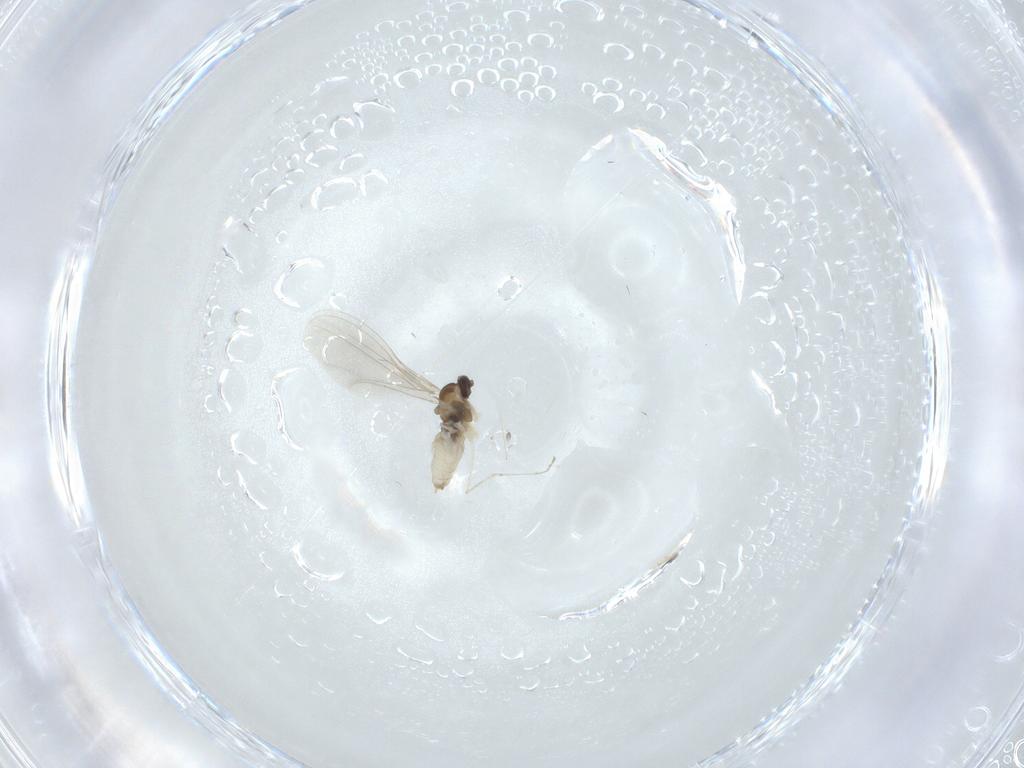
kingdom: Animalia
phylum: Arthropoda
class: Insecta
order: Diptera
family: Cecidomyiidae
